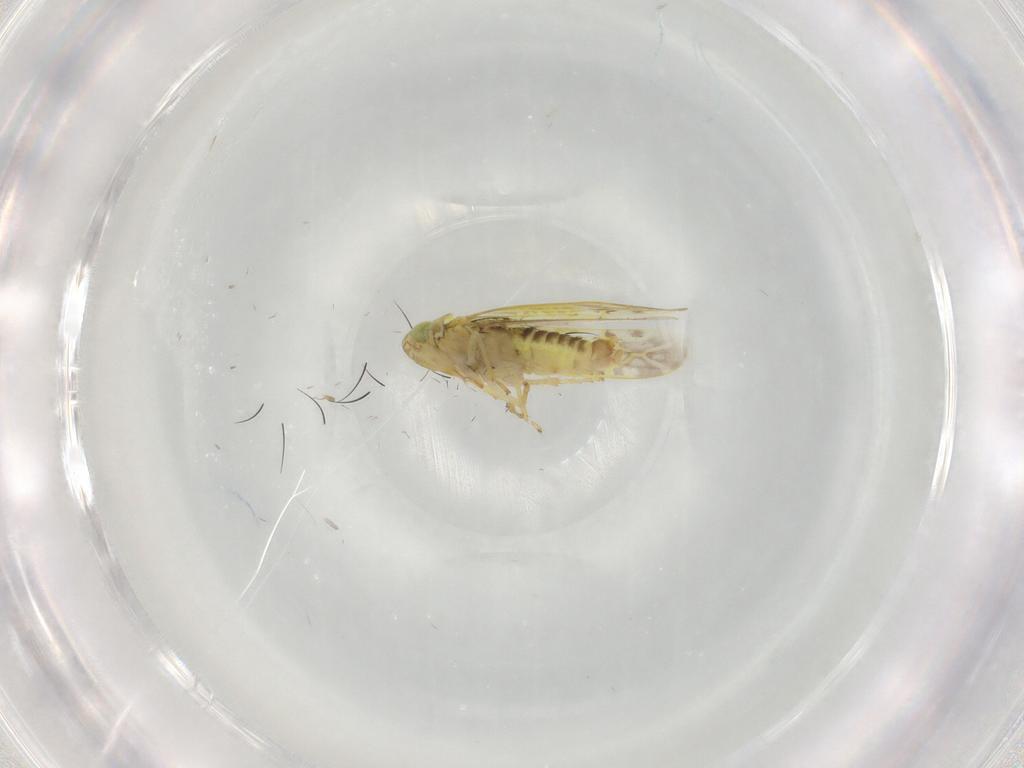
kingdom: Animalia
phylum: Arthropoda
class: Insecta
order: Hemiptera
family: Cicadellidae
